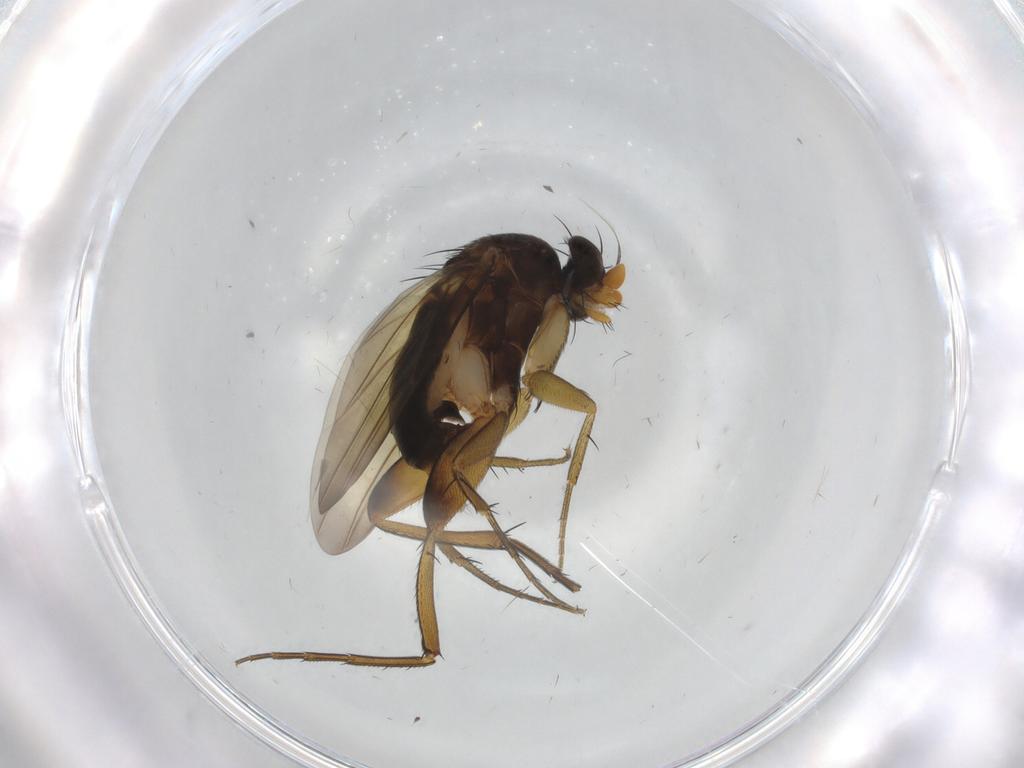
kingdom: Animalia
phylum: Arthropoda
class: Insecta
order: Diptera
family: Phoridae
